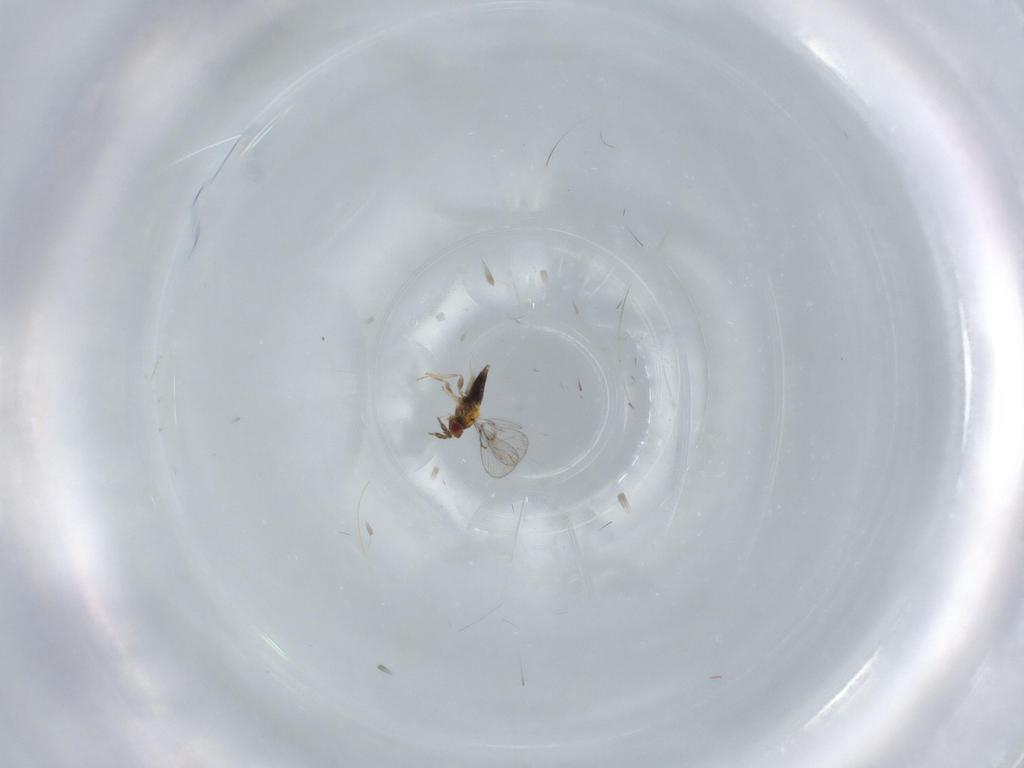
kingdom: Animalia
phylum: Arthropoda
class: Insecta
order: Hymenoptera
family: Trichogrammatidae
